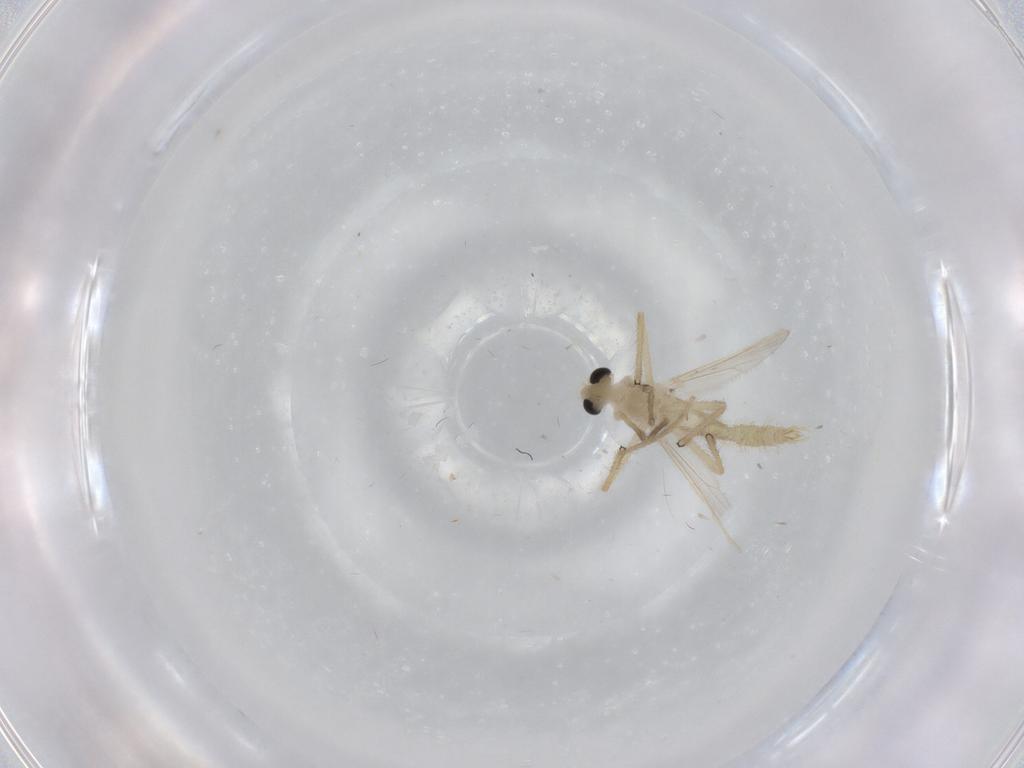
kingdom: Animalia
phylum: Arthropoda
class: Insecta
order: Diptera
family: Chironomidae
